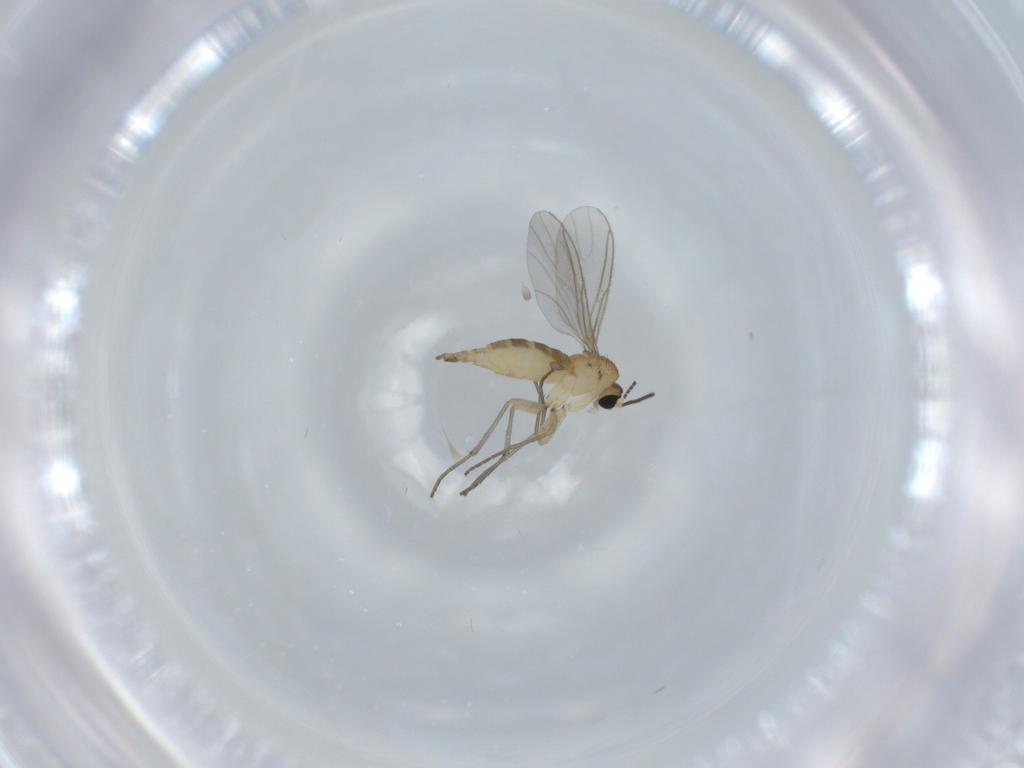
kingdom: Animalia
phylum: Arthropoda
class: Insecta
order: Diptera
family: Sciaridae
